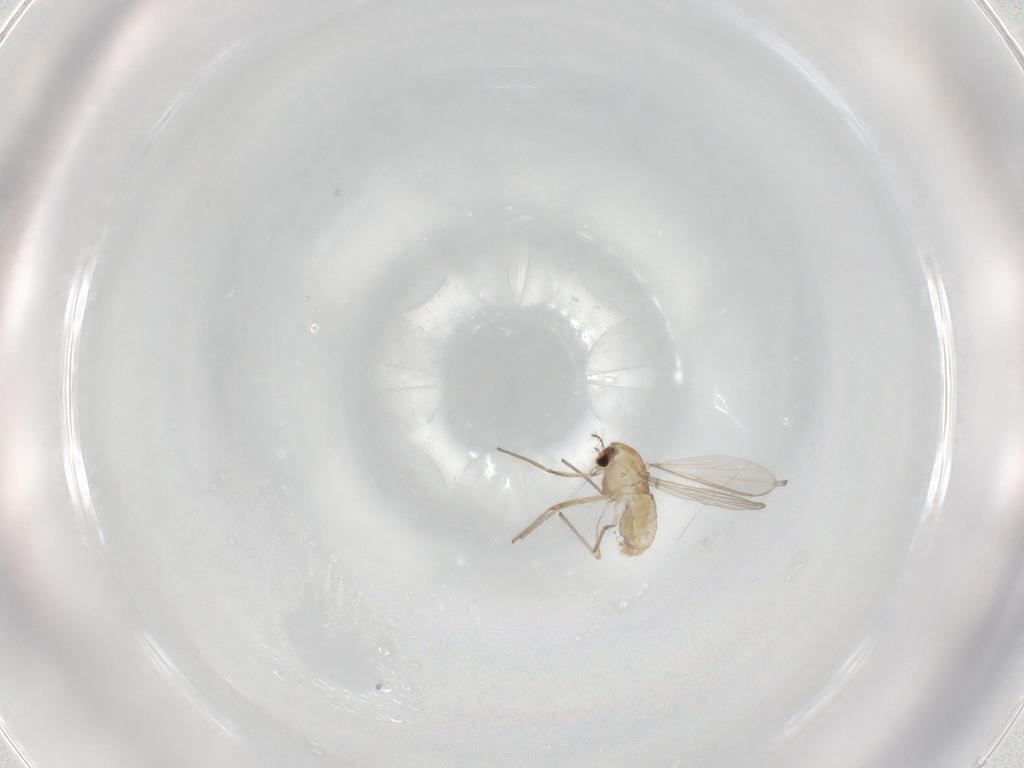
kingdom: Animalia
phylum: Arthropoda
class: Insecta
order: Diptera
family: Chironomidae
